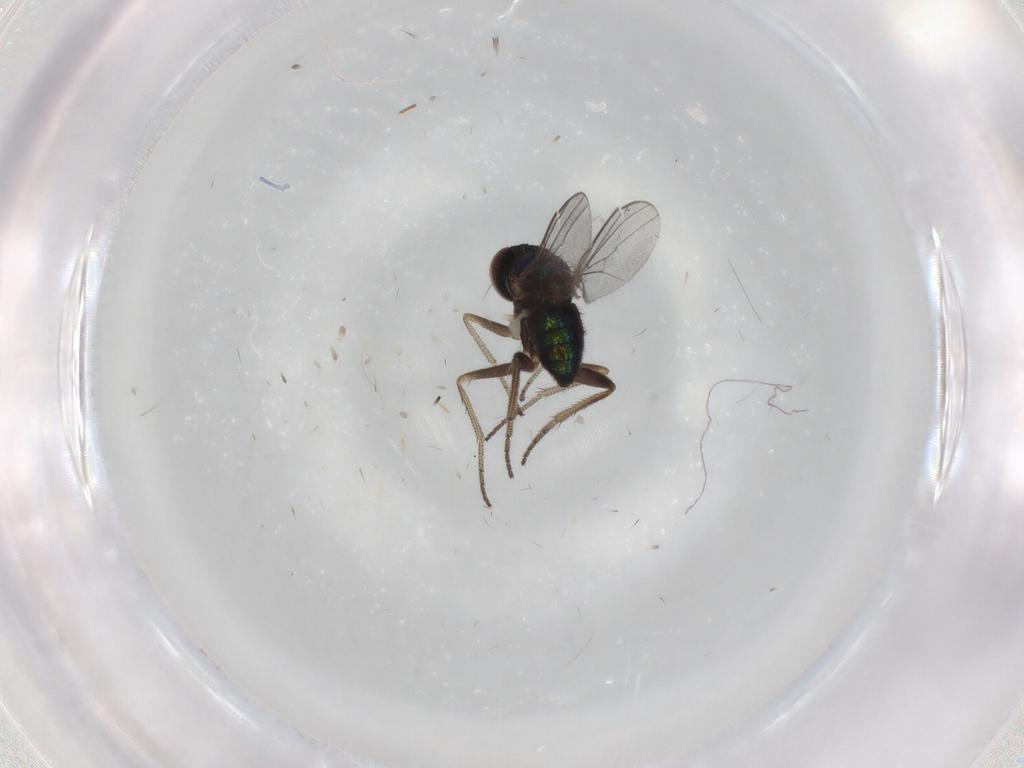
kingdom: Animalia
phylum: Arthropoda
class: Insecta
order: Diptera
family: Dolichopodidae
